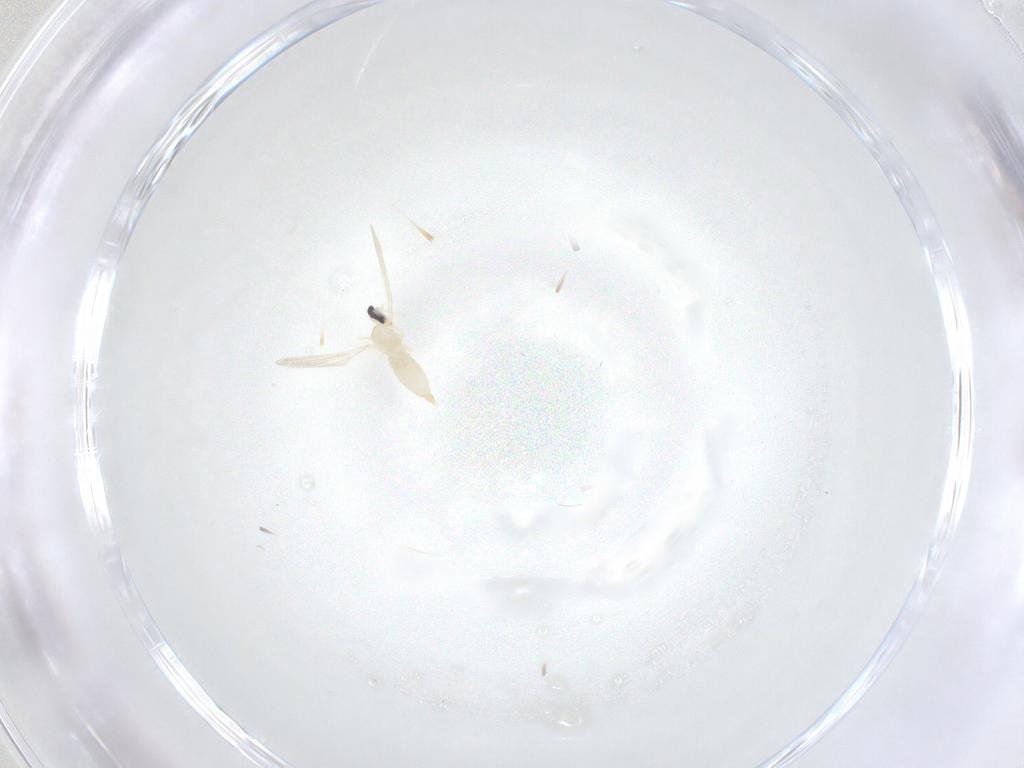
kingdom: Animalia
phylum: Arthropoda
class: Insecta
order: Diptera
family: Cecidomyiidae
